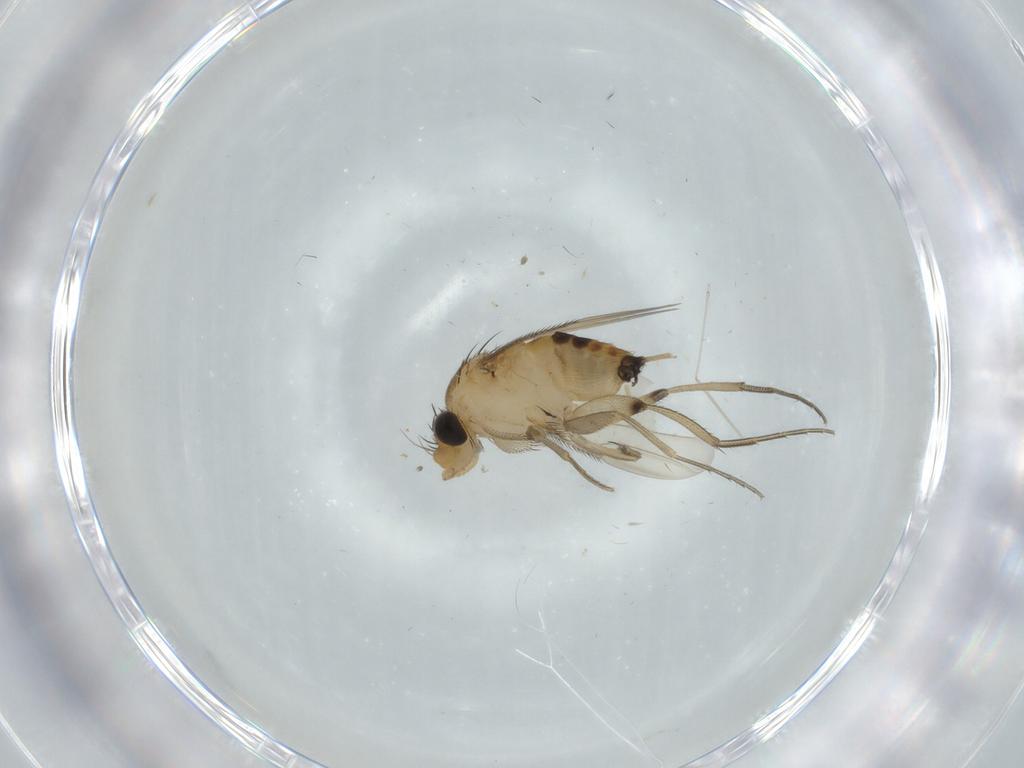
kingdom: Animalia
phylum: Arthropoda
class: Insecta
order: Diptera
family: Phoridae
